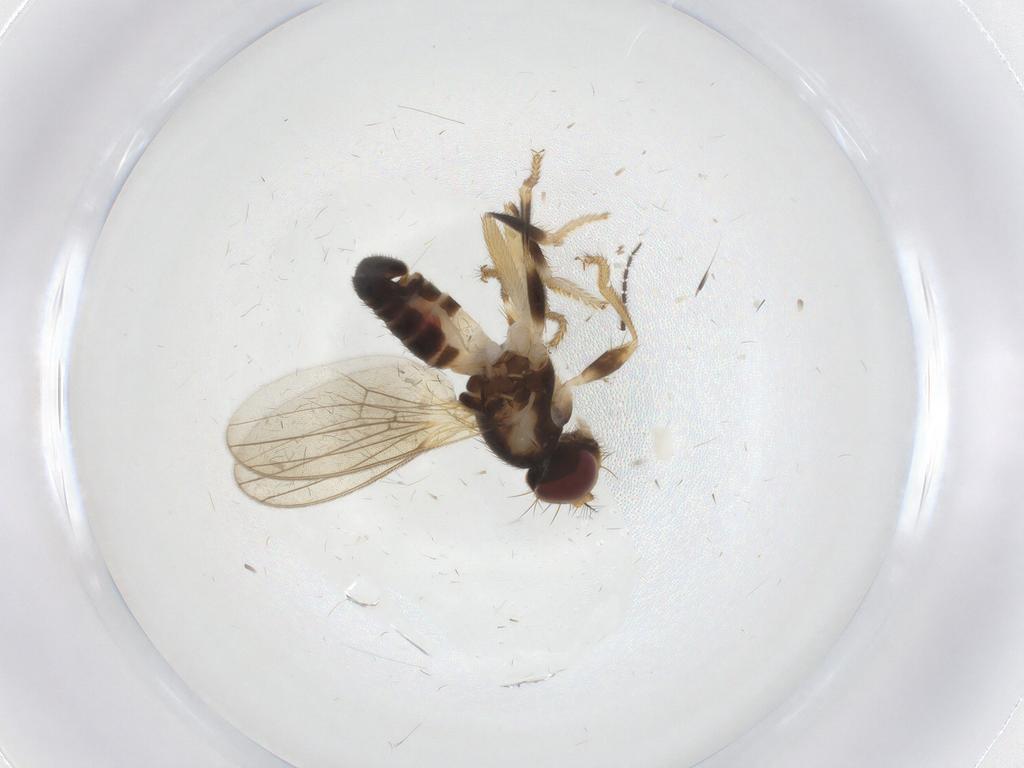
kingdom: Animalia
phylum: Arthropoda
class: Insecta
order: Diptera
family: Periscelididae
